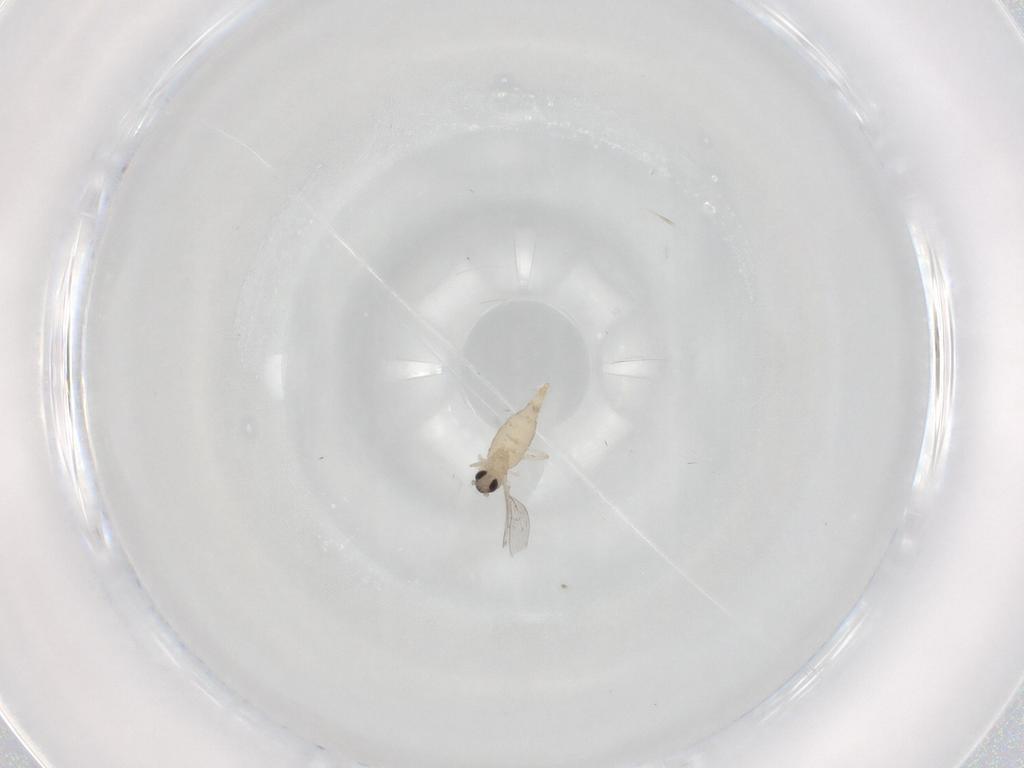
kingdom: Animalia
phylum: Arthropoda
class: Insecta
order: Diptera
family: Cecidomyiidae
